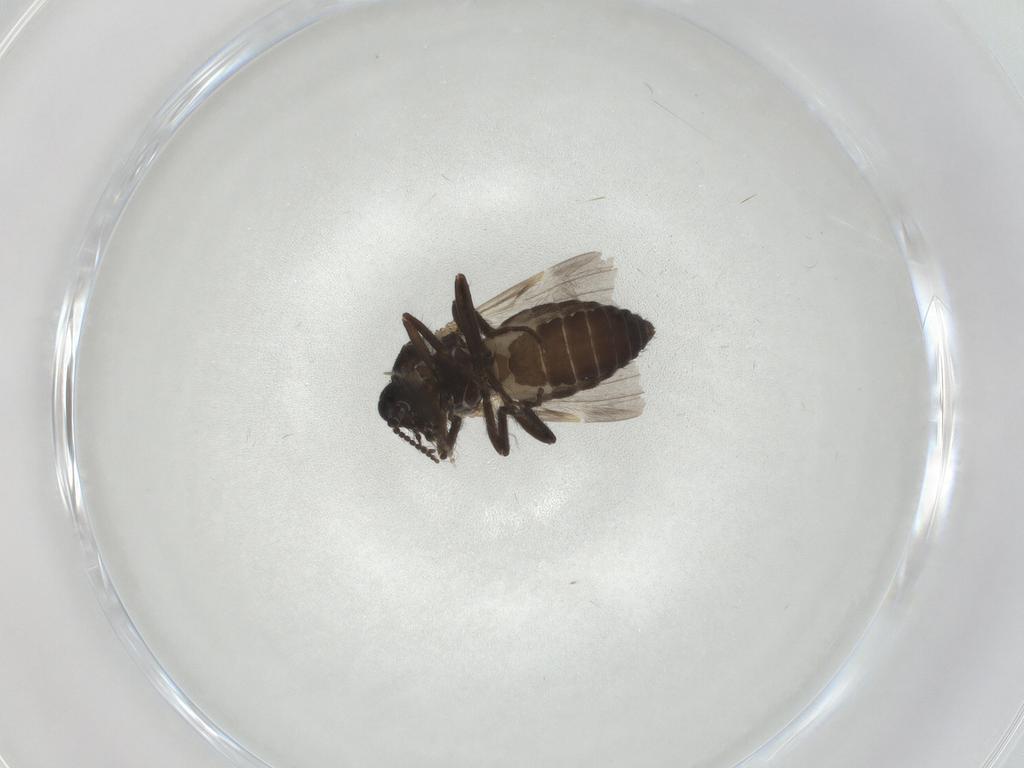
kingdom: Animalia
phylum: Arthropoda
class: Insecta
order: Diptera
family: Ceratopogonidae
